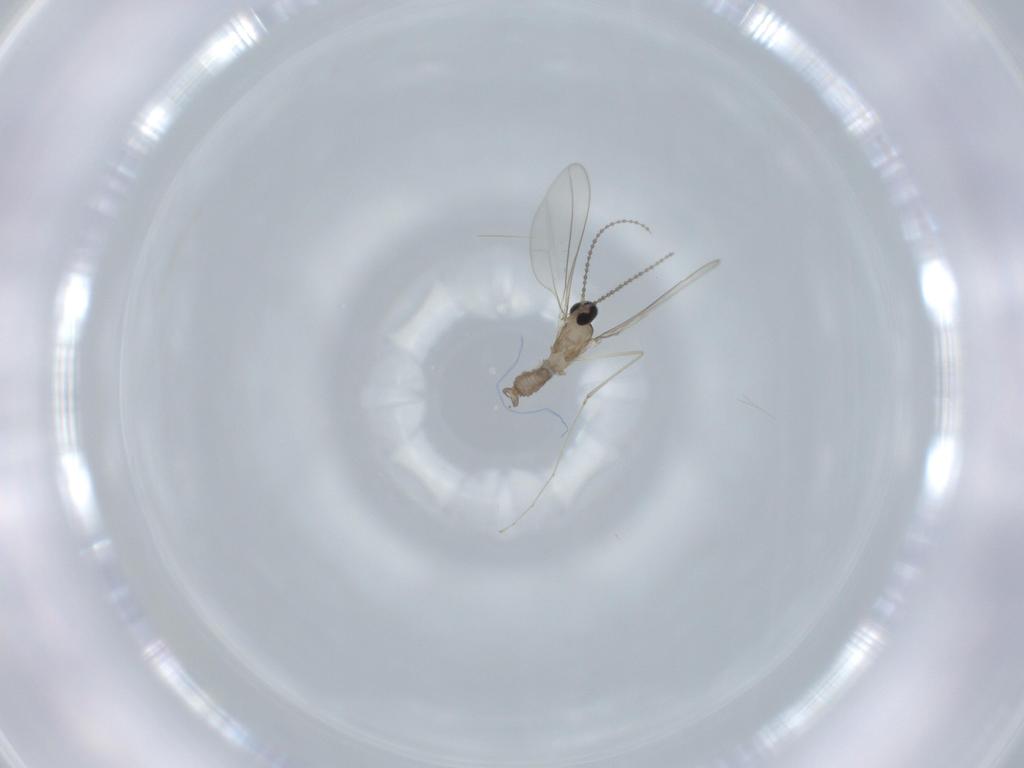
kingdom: Animalia
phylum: Arthropoda
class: Insecta
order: Diptera
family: Cecidomyiidae
